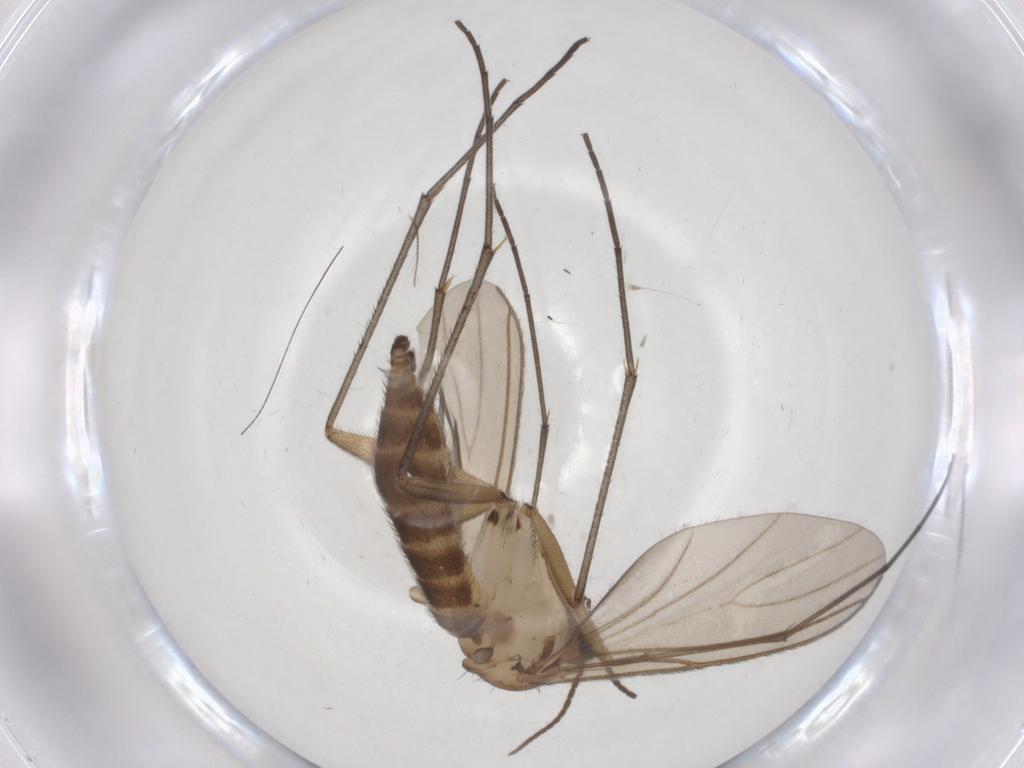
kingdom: Animalia
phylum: Arthropoda
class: Insecta
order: Diptera
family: Sciaridae
